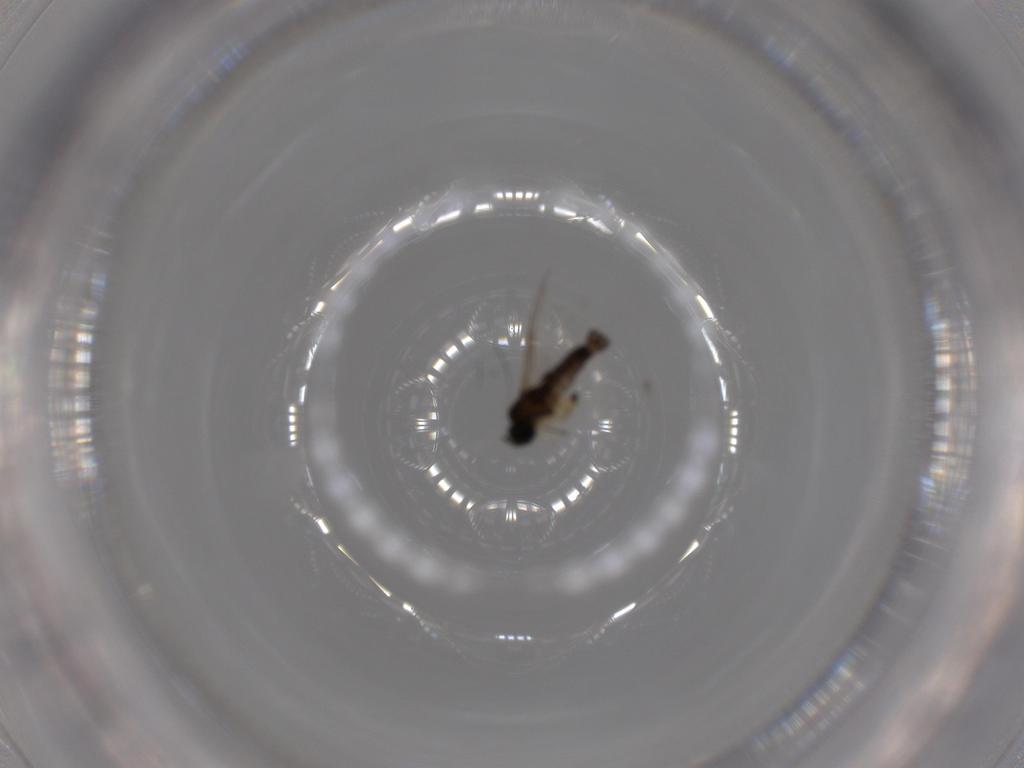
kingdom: Animalia
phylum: Arthropoda
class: Insecta
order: Diptera
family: Sciaridae
